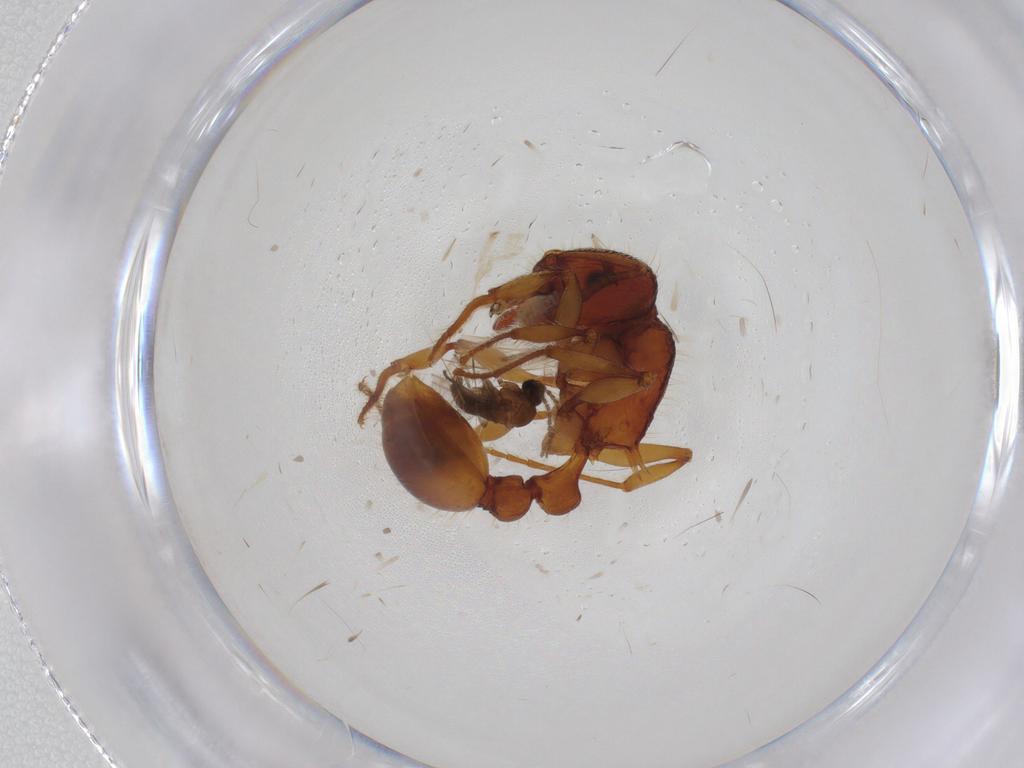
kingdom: Animalia
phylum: Arthropoda
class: Insecta
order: Diptera
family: Sciaridae
